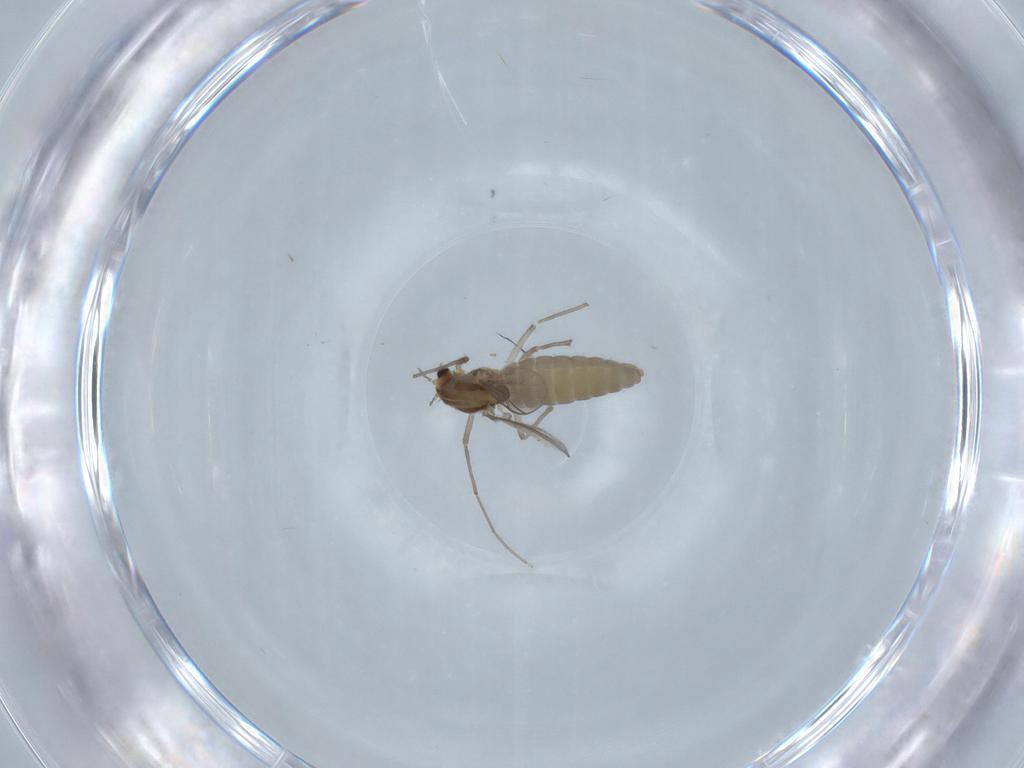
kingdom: Animalia
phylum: Arthropoda
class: Insecta
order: Diptera
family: Chironomidae
